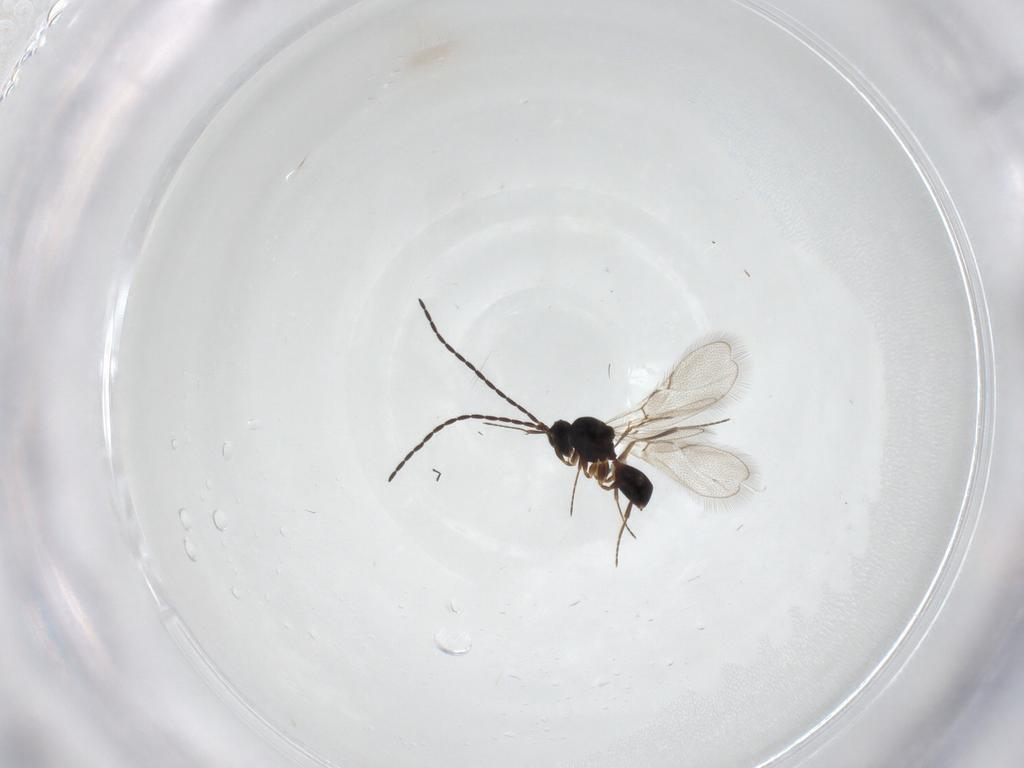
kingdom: Animalia
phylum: Arthropoda
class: Insecta
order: Hymenoptera
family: Figitidae
